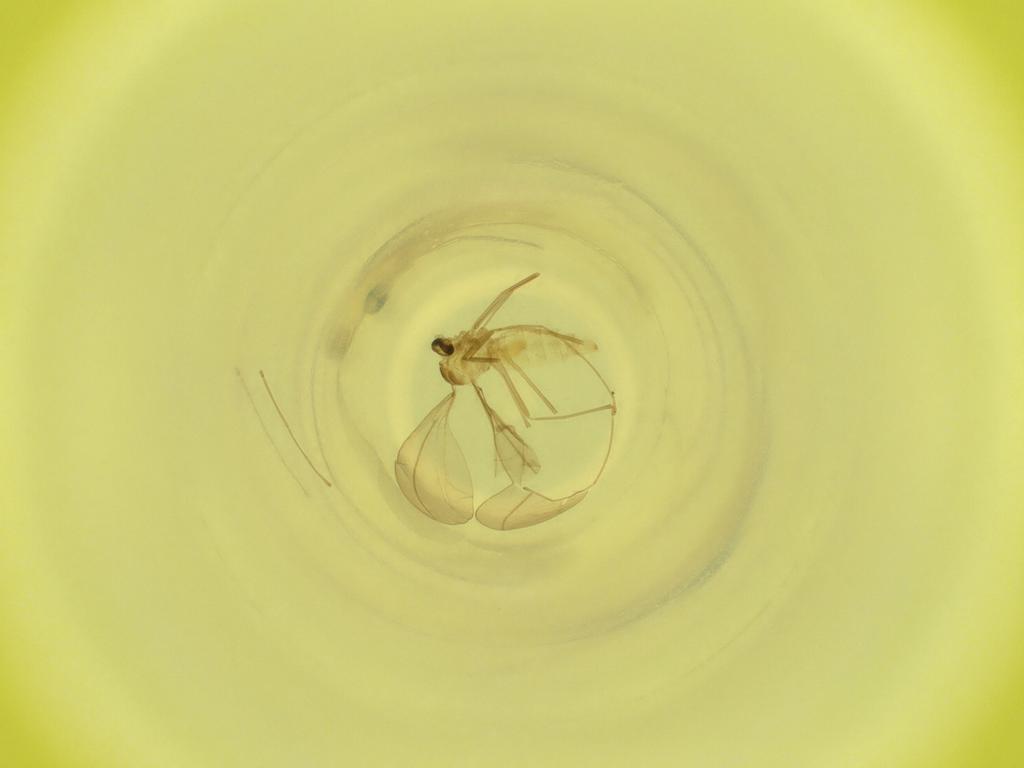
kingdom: Animalia
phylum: Arthropoda
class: Insecta
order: Diptera
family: Cecidomyiidae
